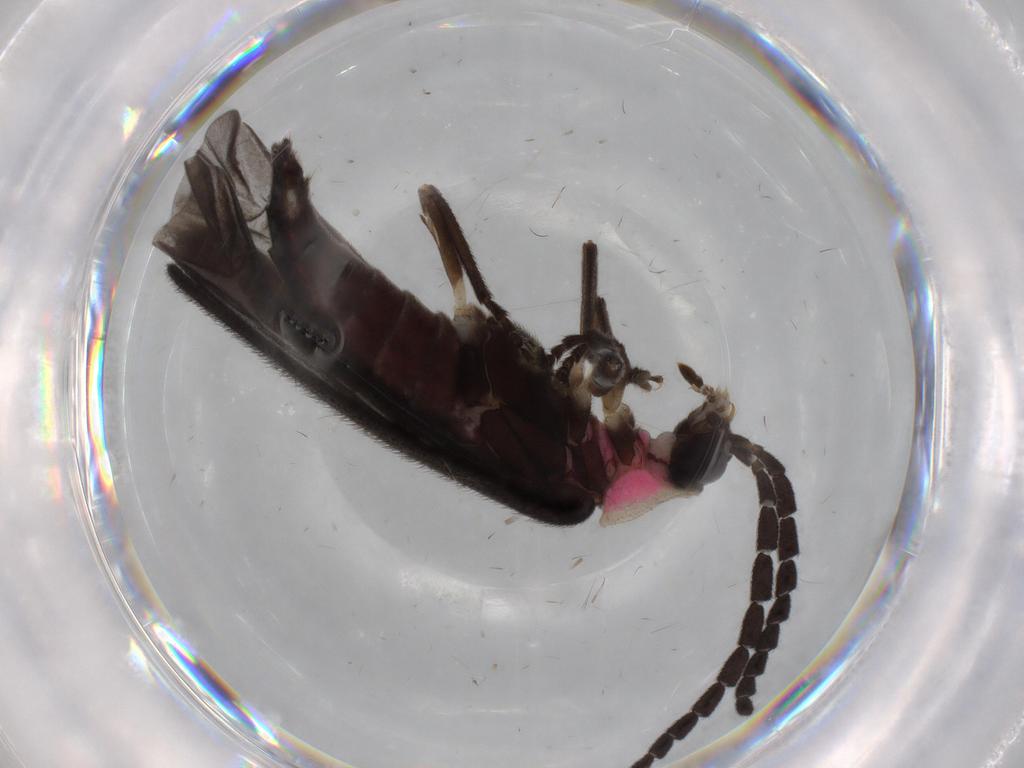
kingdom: Animalia
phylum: Arthropoda
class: Insecta
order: Coleoptera
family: Lampyridae
